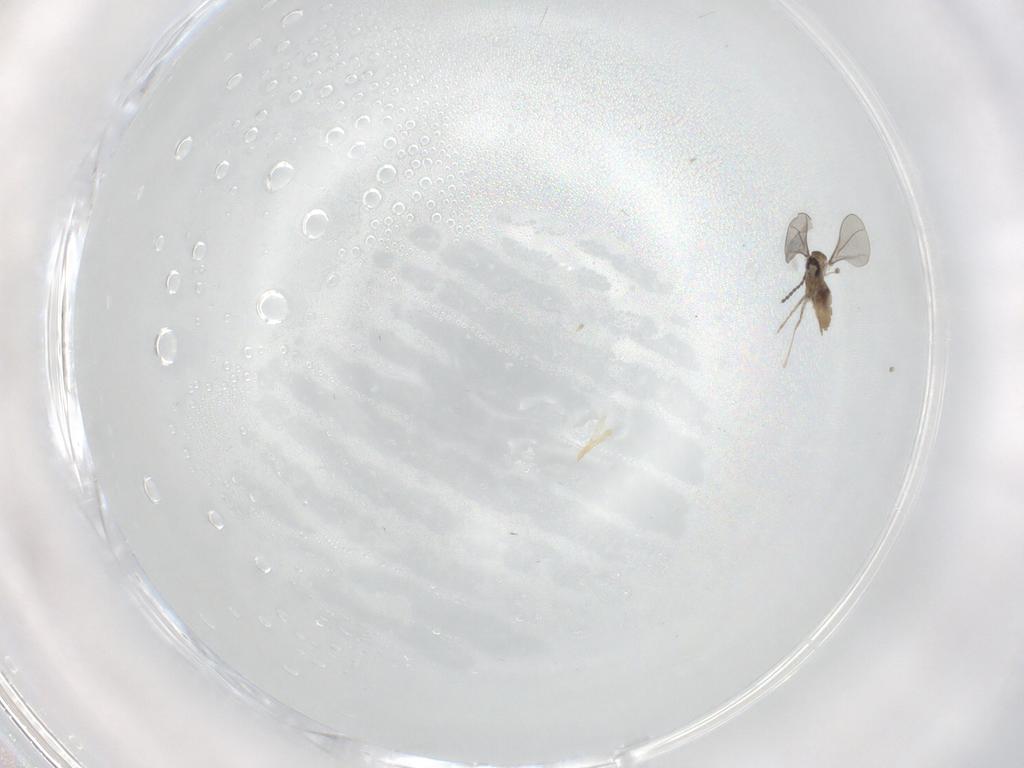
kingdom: Animalia
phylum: Arthropoda
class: Insecta
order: Diptera
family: Cecidomyiidae
